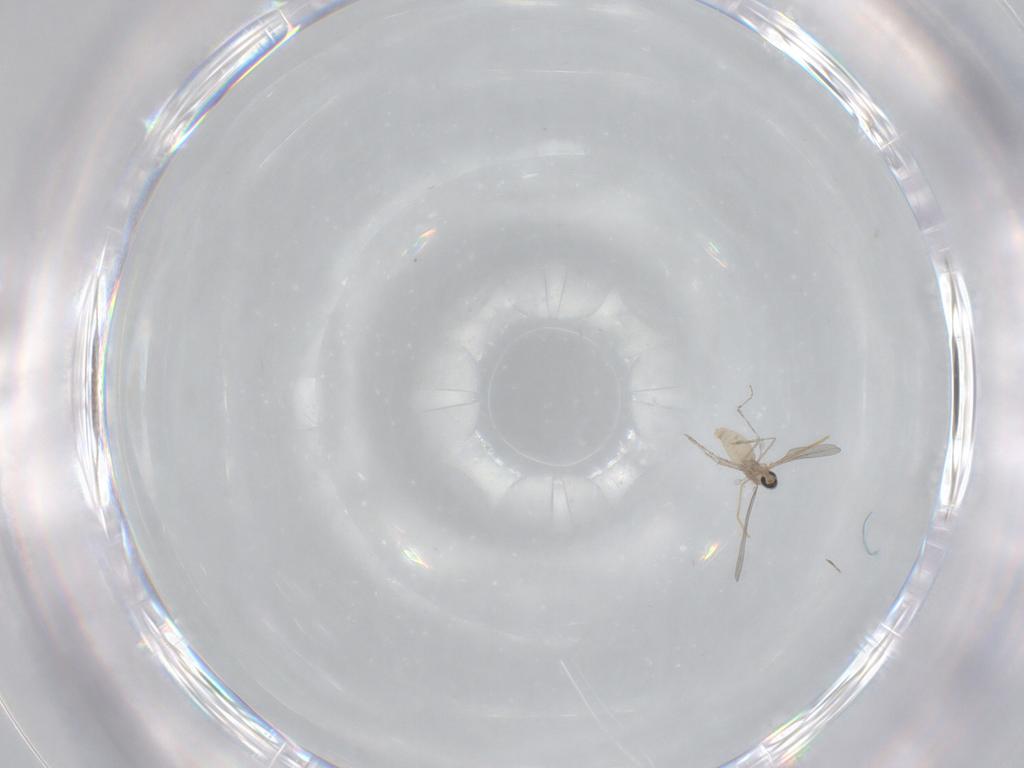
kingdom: Animalia
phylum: Arthropoda
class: Insecta
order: Diptera
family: Cecidomyiidae
